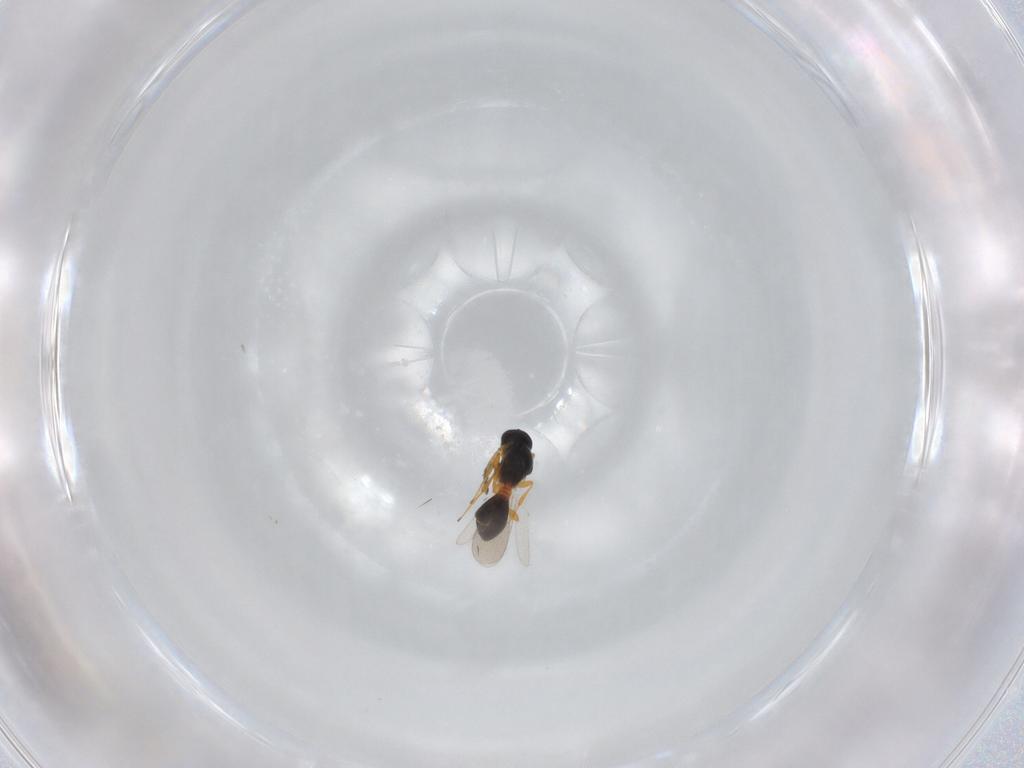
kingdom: Animalia
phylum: Arthropoda
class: Insecta
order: Hymenoptera
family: Platygastridae
